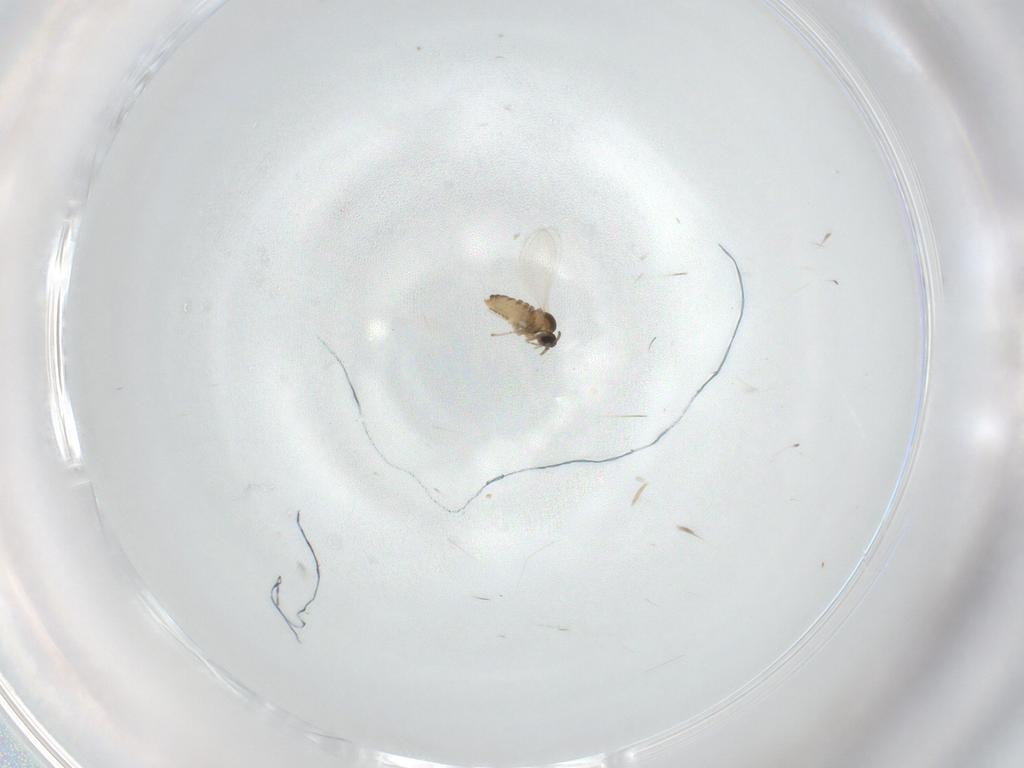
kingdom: Animalia
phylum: Arthropoda
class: Insecta
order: Diptera
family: Cecidomyiidae
